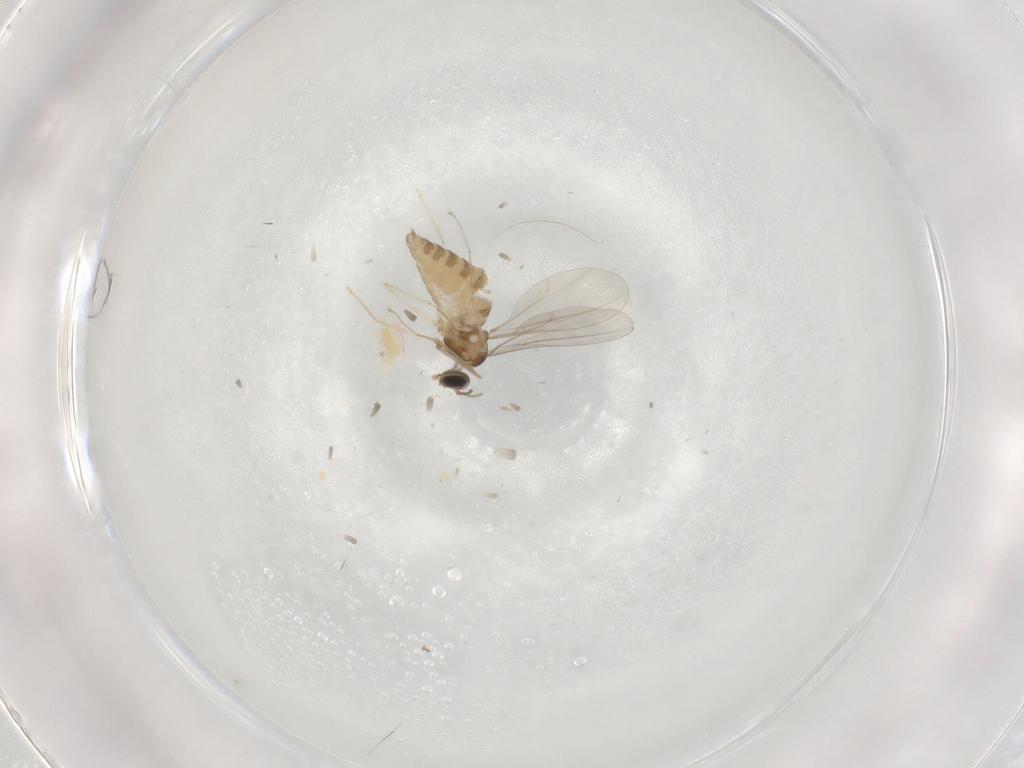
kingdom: Animalia
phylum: Arthropoda
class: Insecta
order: Diptera
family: Cecidomyiidae
